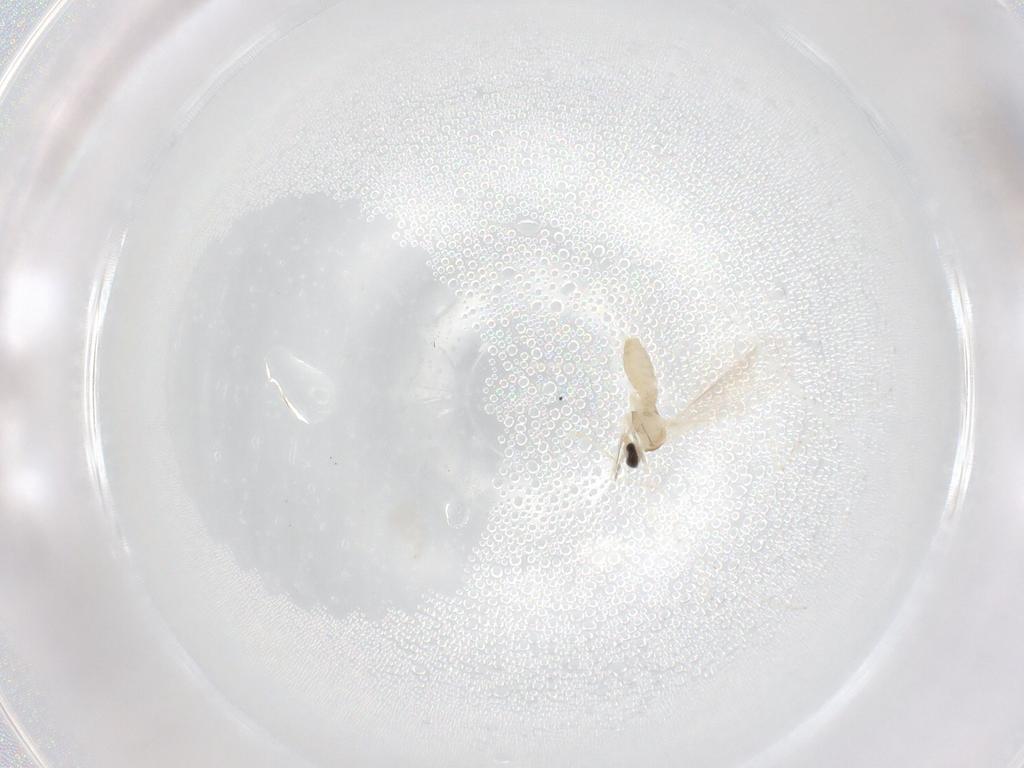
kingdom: Animalia
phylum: Arthropoda
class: Insecta
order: Diptera
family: Cecidomyiidae
